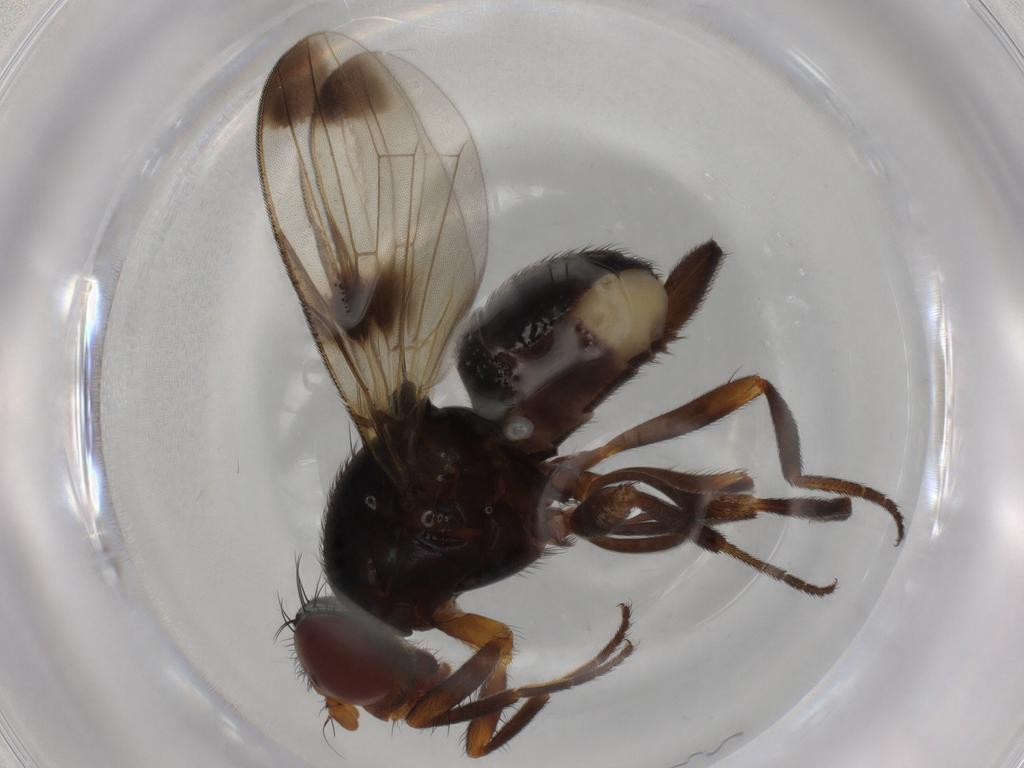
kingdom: Animalia
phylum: Arthropoda
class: Insecta
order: Diptera
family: Ulidiidae
